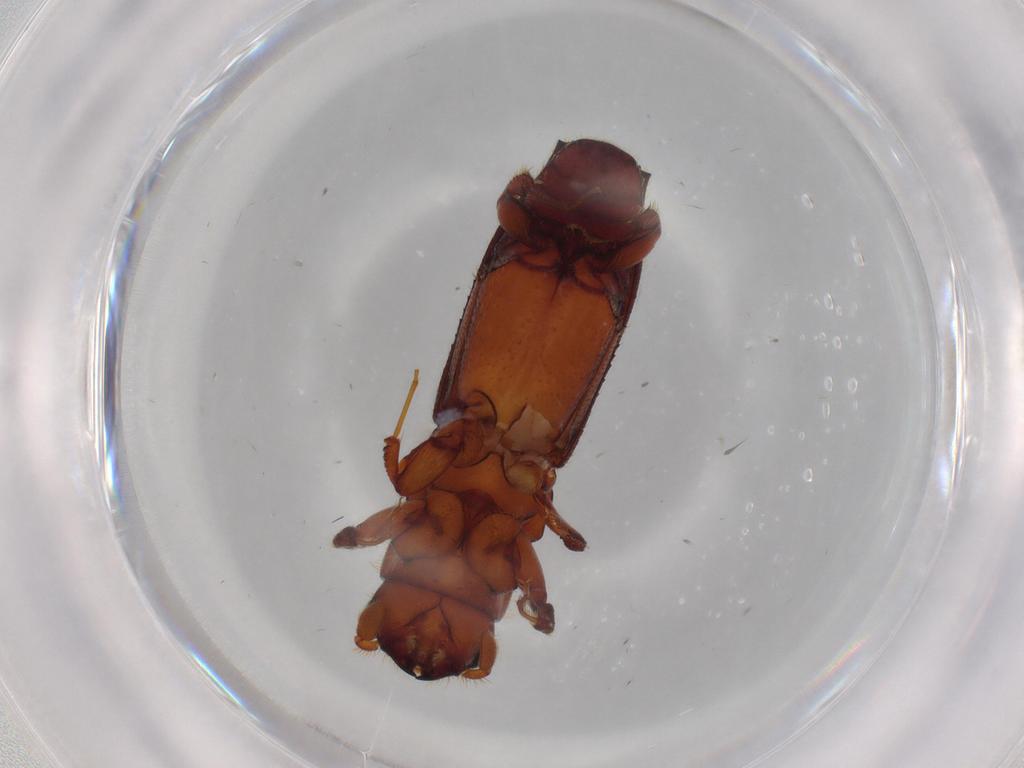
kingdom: Animalia
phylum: Arthropoda
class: Insecta
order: Coleoptera
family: Curculionidae
